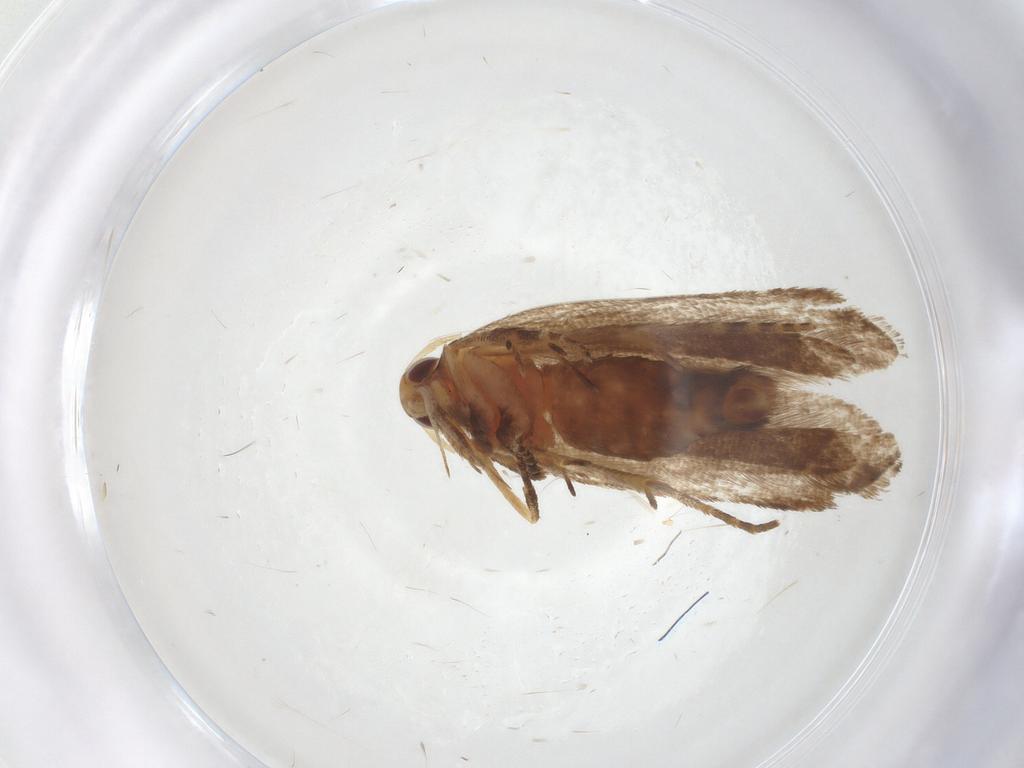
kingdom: Animalia
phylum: Arthropoda
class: Insecta
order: Lepidoptera
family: Gelechiidae
